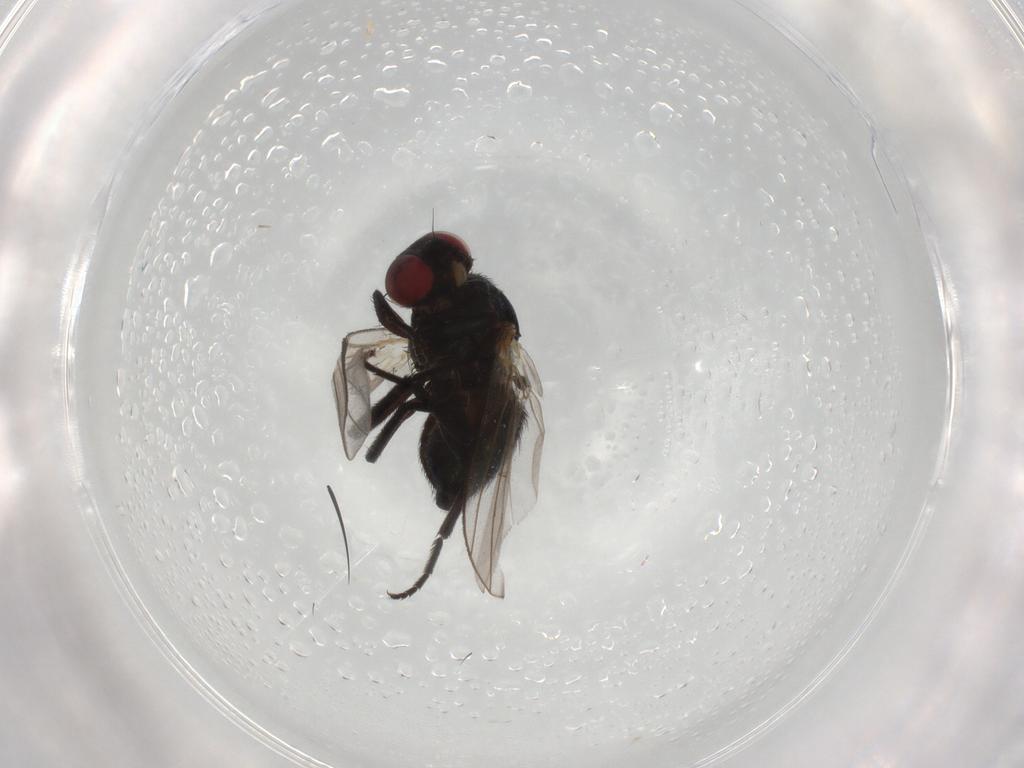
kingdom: Animalia
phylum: Arthropoda
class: Insecta
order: Diptera
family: Agromyzidae
